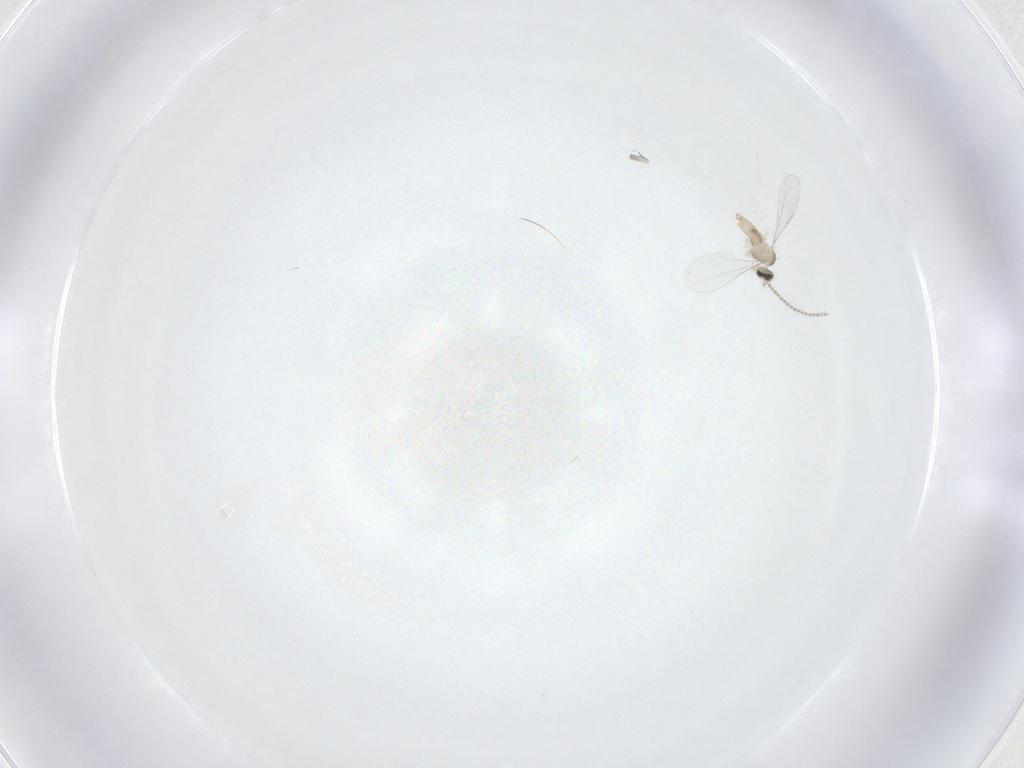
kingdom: Animalia
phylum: Arthropoda
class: Insecta
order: Diptera
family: Cecidomyiidae
